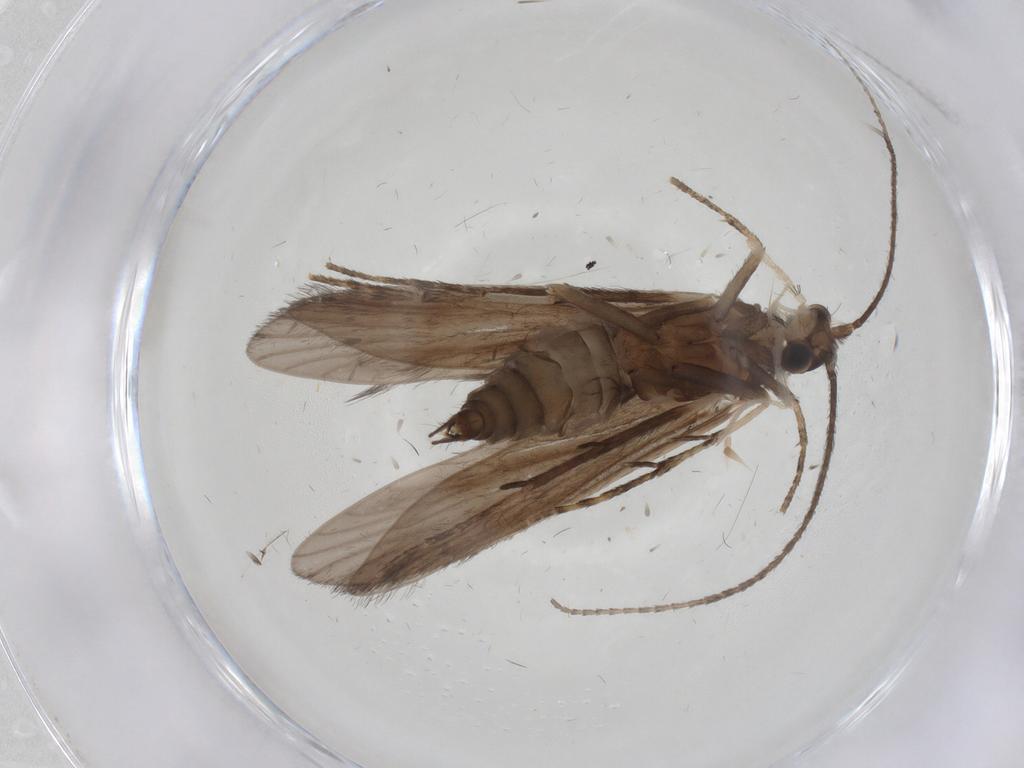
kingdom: Animalia
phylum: Arthropoda
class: Insecta
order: Trichoptera
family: Xiphocentronidae
